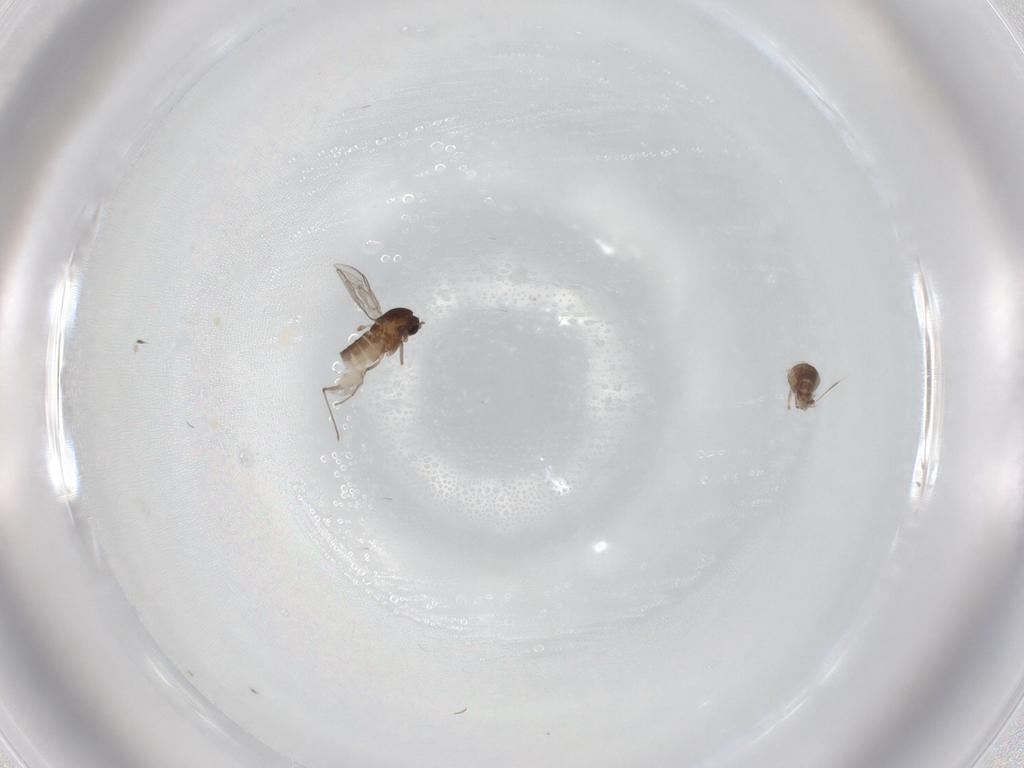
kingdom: Animalia
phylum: Arthropoda
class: Insecta
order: Diptera
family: Chironomidae
